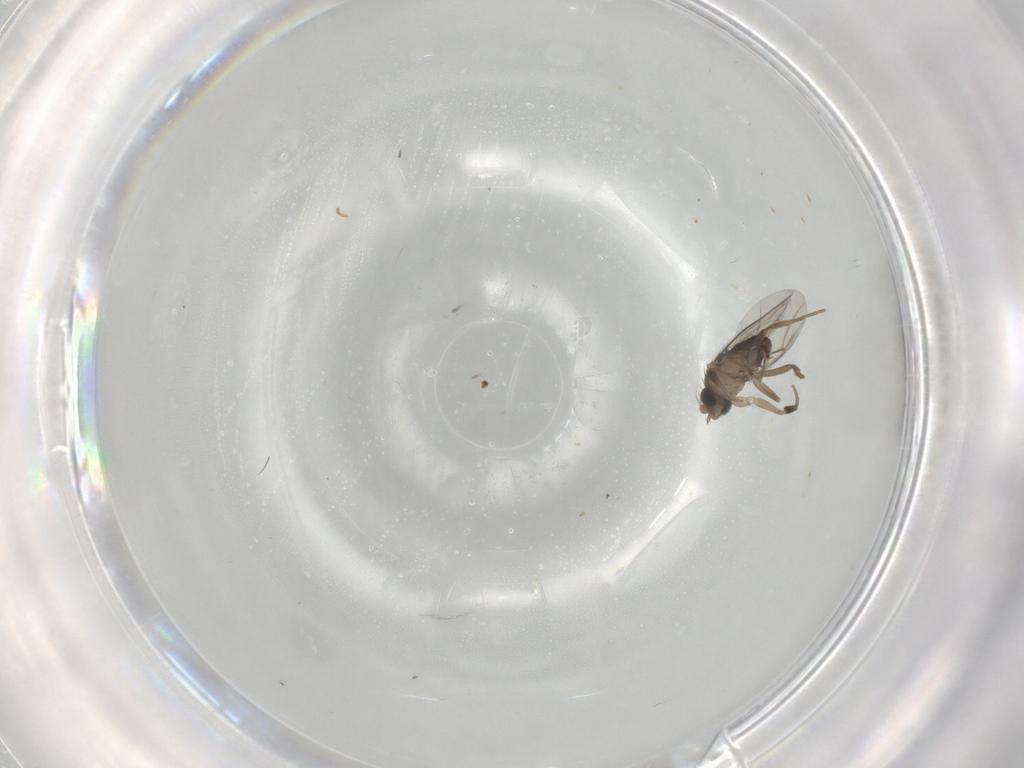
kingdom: Animalia
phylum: Arthropoda
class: Insecta
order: Diptera
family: Phoridae
